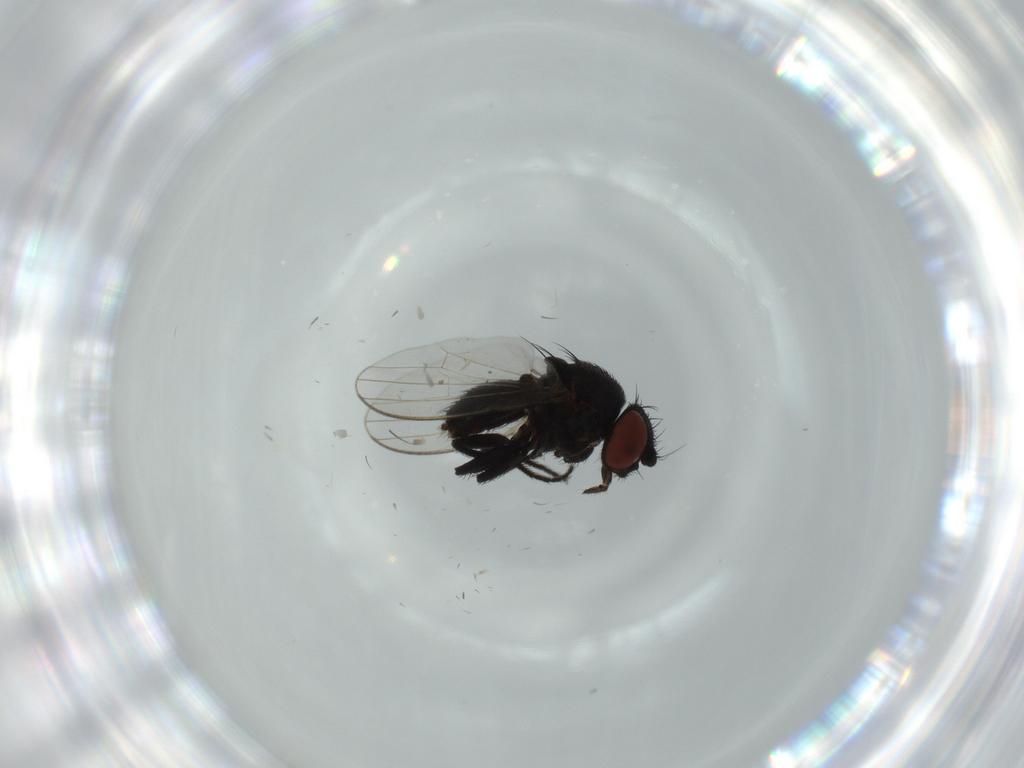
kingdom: Animalia
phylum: Arthropoda
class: Insecta
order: Diptera
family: Milichiidae
